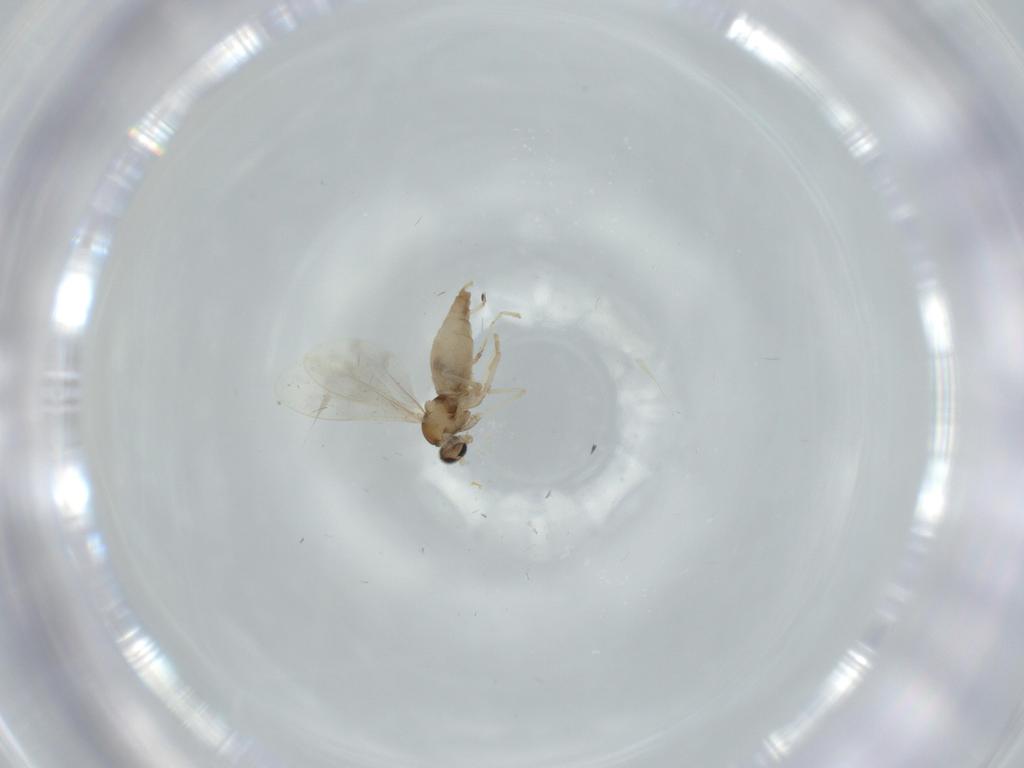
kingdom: Animalia
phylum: Arthropoda
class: Insecta
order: Diptera
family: Cecidomyiidae
